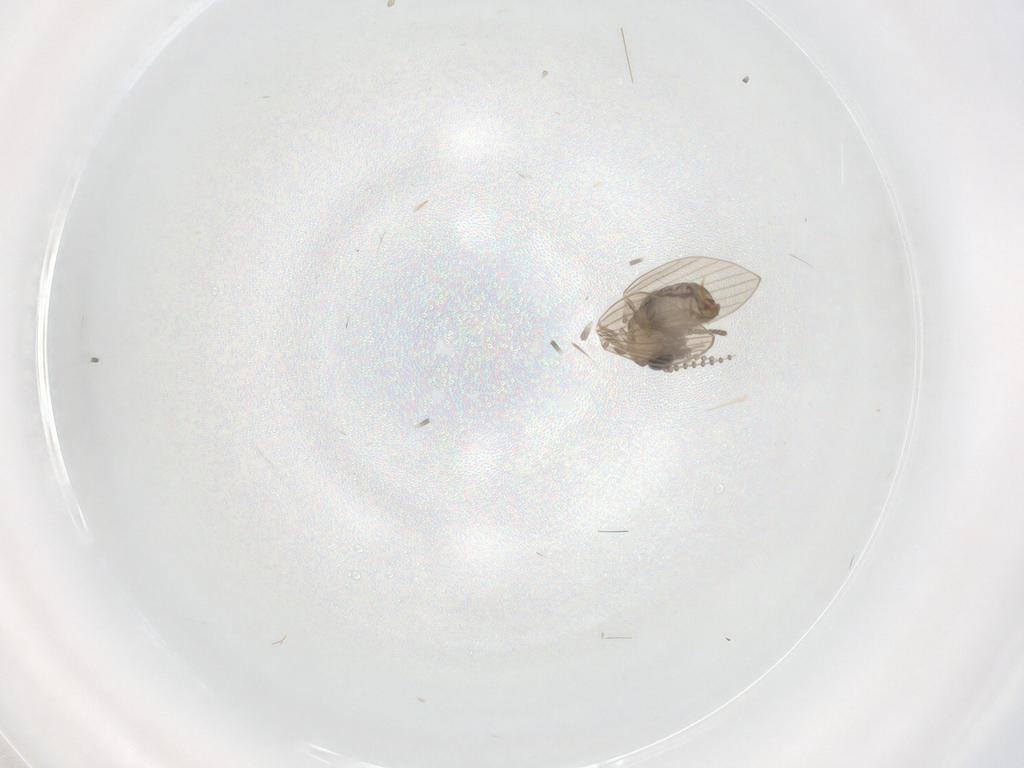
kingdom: Animalia
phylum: Arthropoda
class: Insecta
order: Diptera
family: Psychodidae
